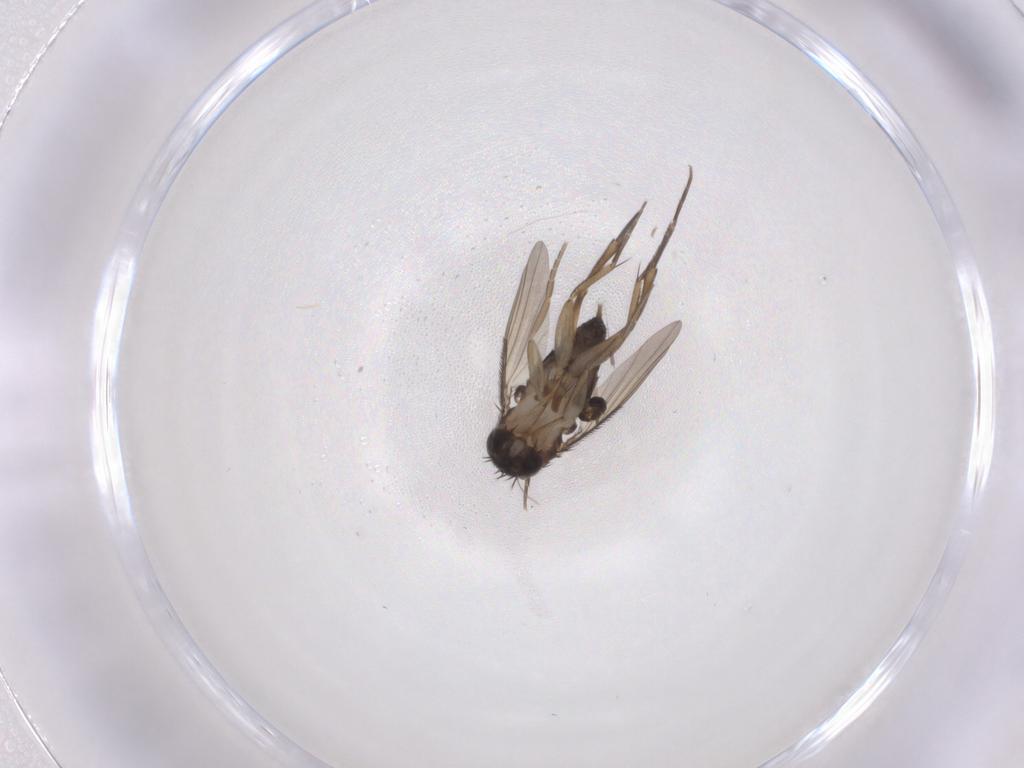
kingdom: Animalia
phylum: Arthropoda
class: Insecta
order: Diptera
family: Phoridae
